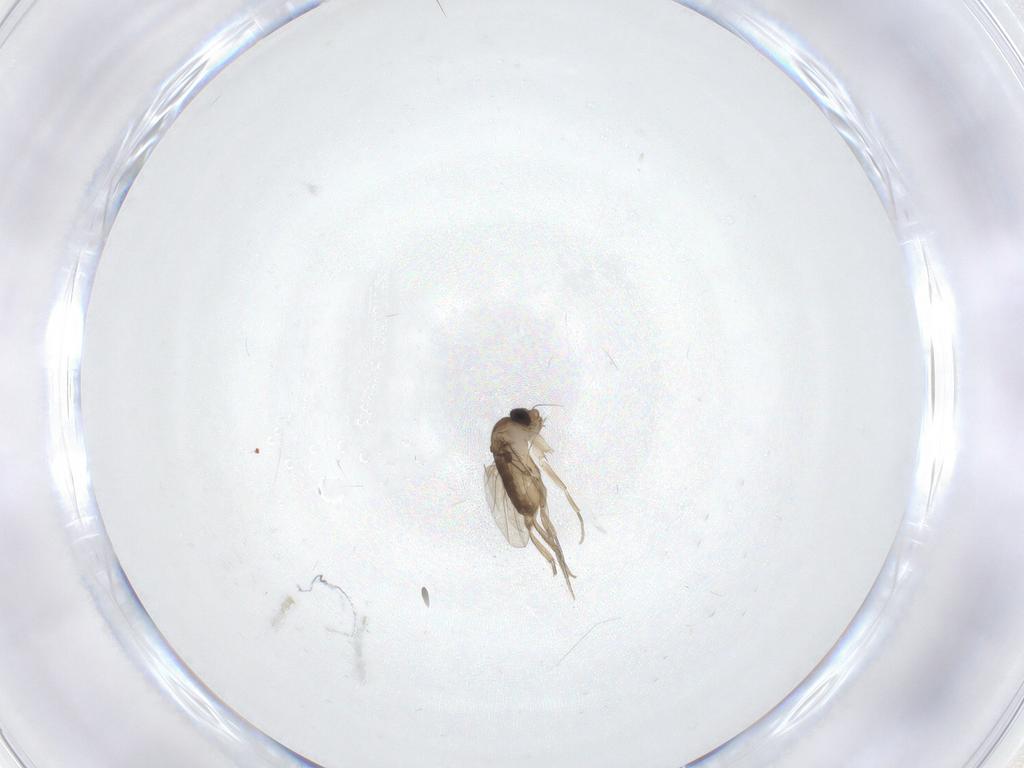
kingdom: Animalia
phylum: Arthropoda
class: Insecta
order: Diptera
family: Phoridae
